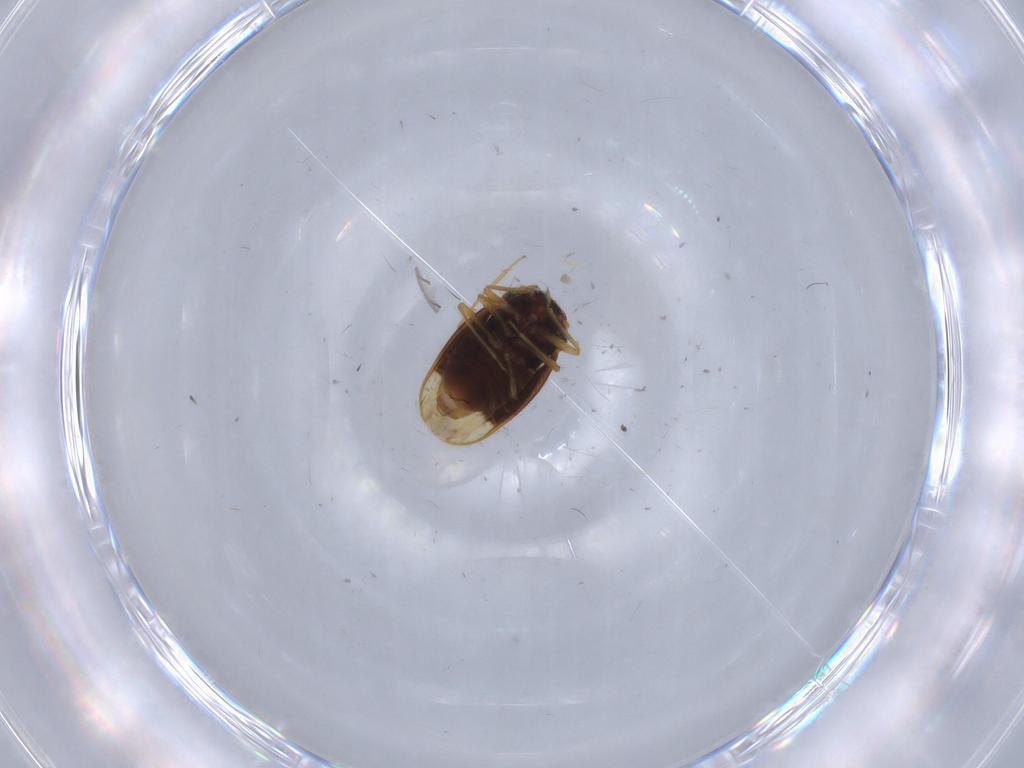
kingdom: Animalia
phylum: Arthropoda
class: Insecta
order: Hemiptera
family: Schizopteridae
